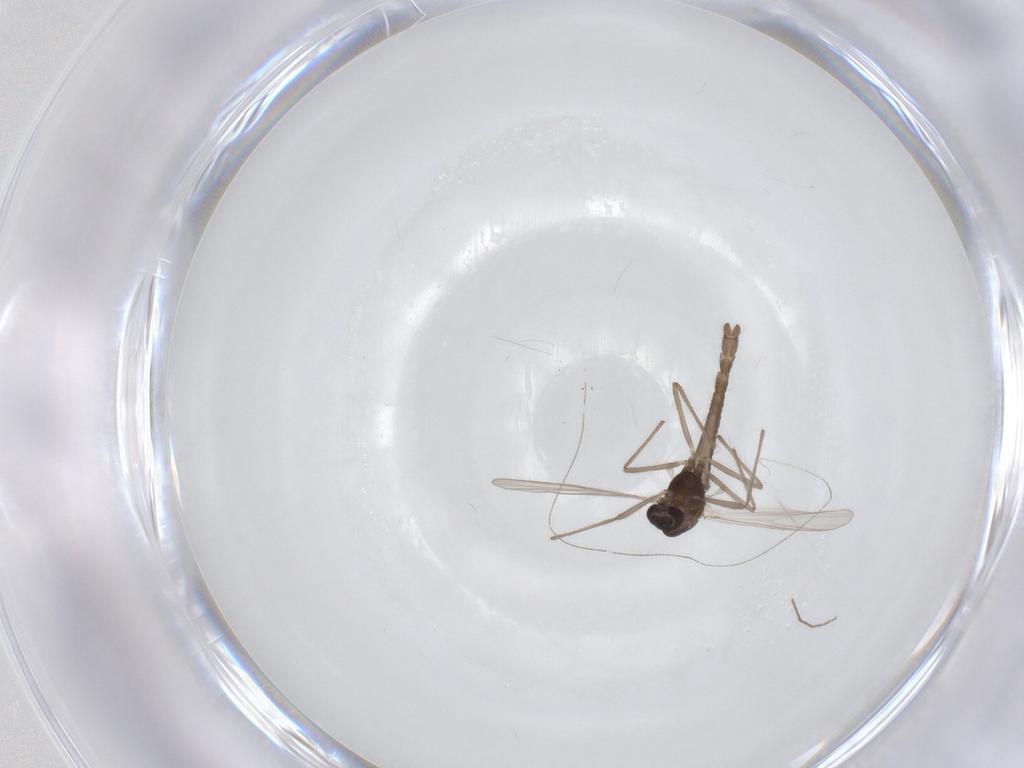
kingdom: Animalia
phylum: Arthropoda
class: Insecta
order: Diptera
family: Chironomidae
